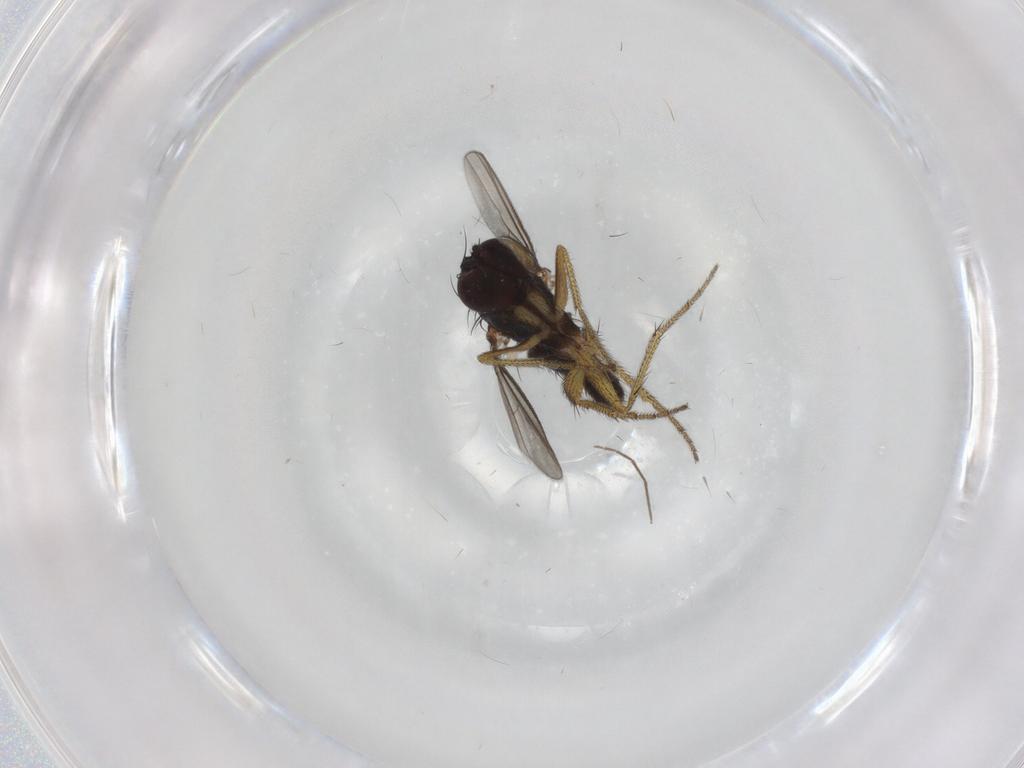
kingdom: Animalia
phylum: Arthropoda
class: Insecta
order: Diptera
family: Chironomidae
